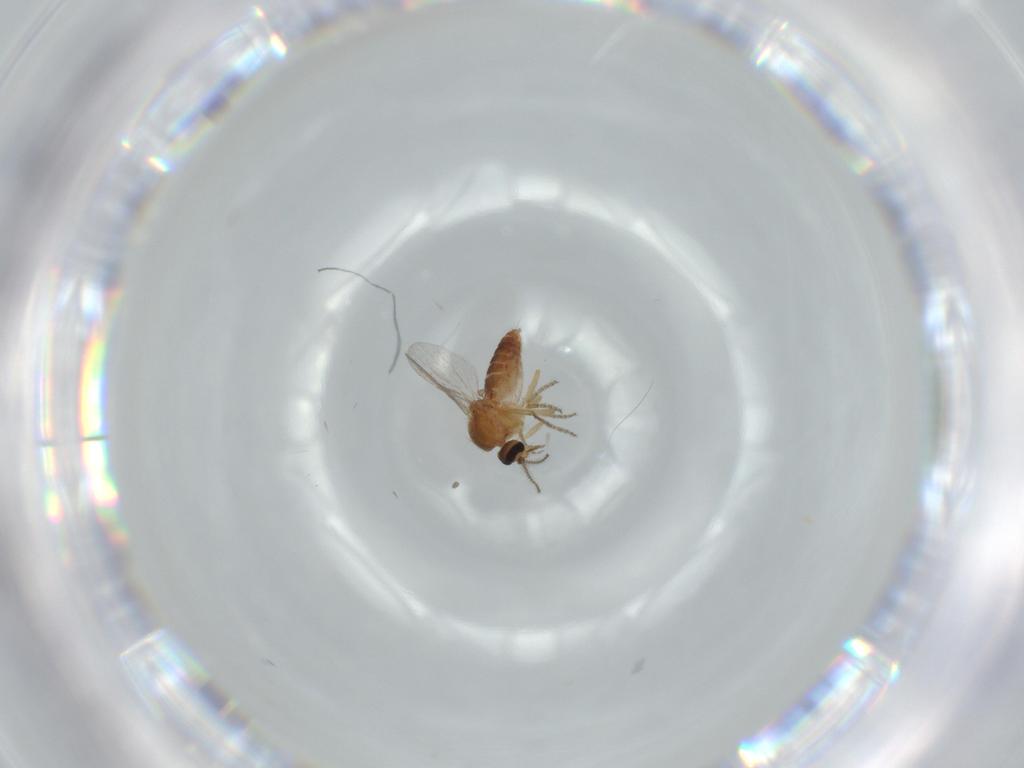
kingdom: Animalia
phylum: Arthropoda
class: Insecta
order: Diptera
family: Ceratopogonidae
